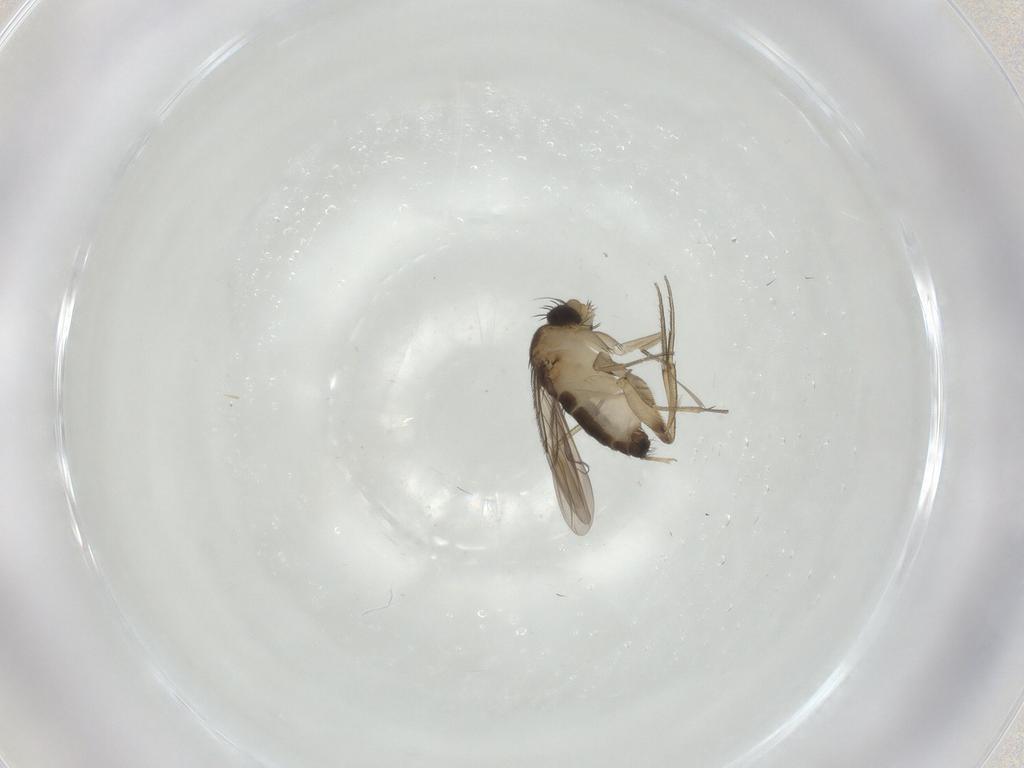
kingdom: Animalia
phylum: Arthropoda
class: Insecta
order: Diptera
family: Phoridae
